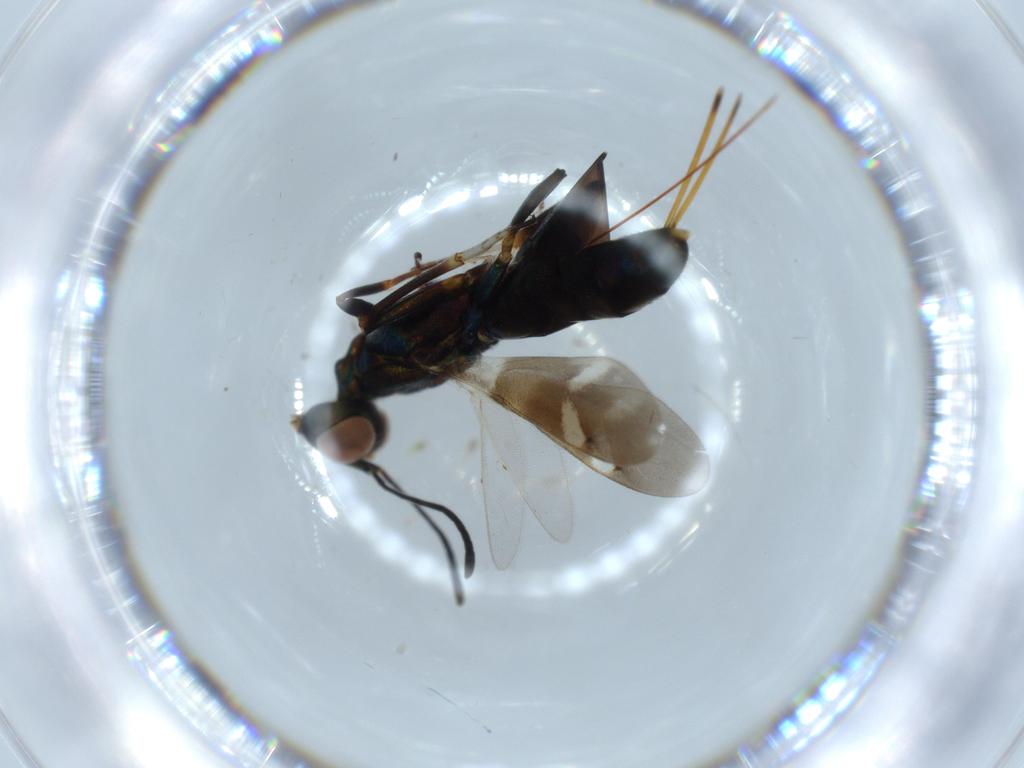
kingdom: Animalia
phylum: Arthropoda
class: Insecta
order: Hymenoptera
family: Eupelmidae
